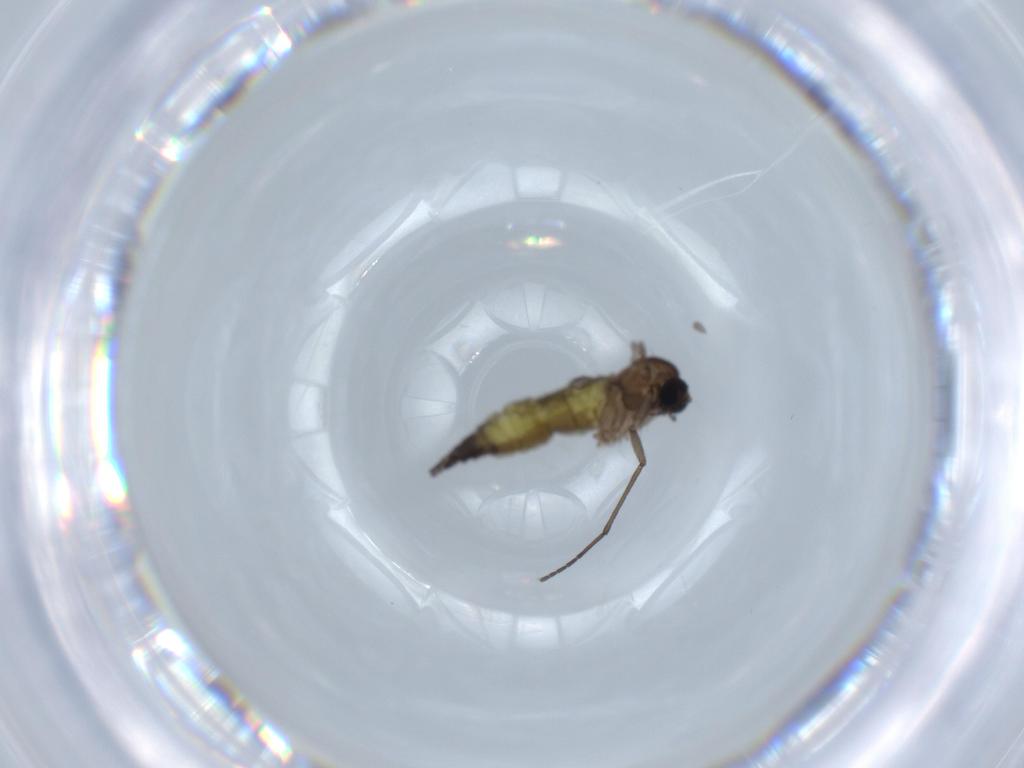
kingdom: Animalia
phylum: Arthropoda
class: Insecta
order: Diptera
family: Sciaridae
